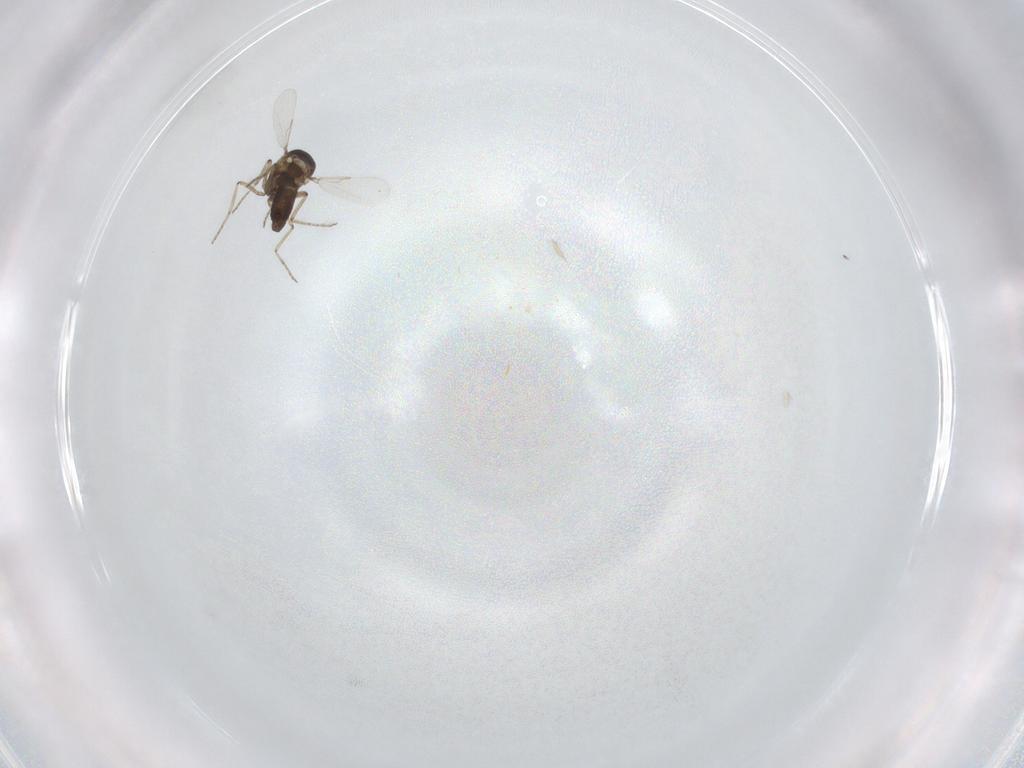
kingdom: Animalia
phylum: Arthropoda
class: Insecta
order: Diptera
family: Ceratopogonidae
